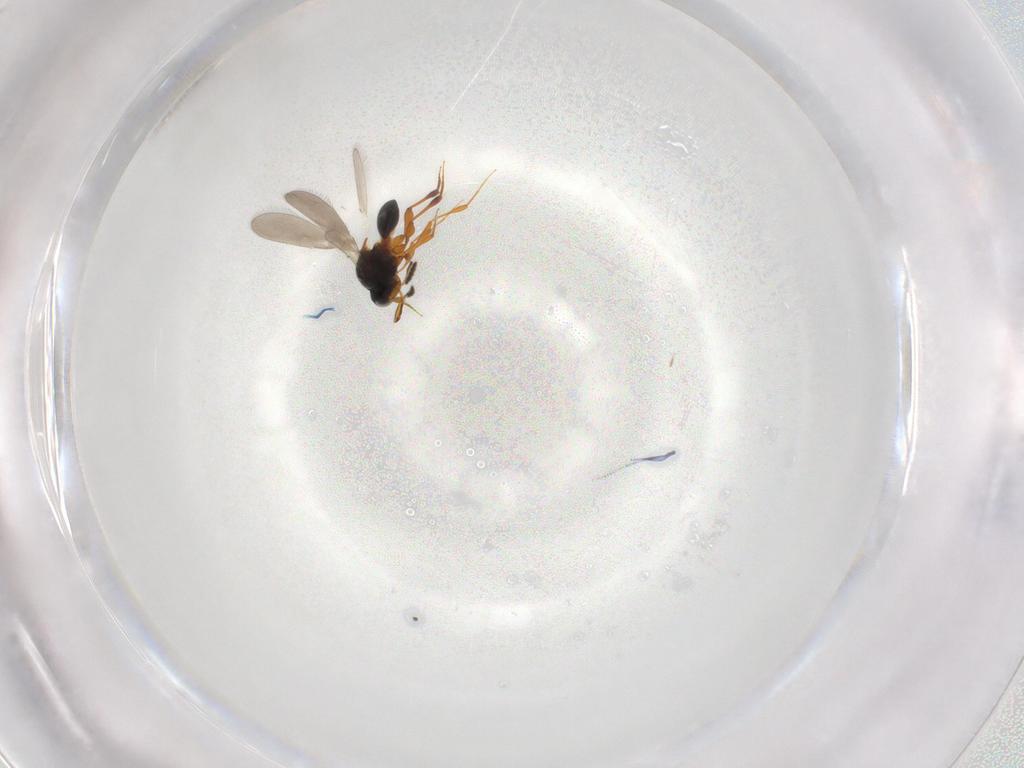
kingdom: Animalia
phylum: Arthropoda
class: Insecta
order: Hymenoptera
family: Platygastridae
